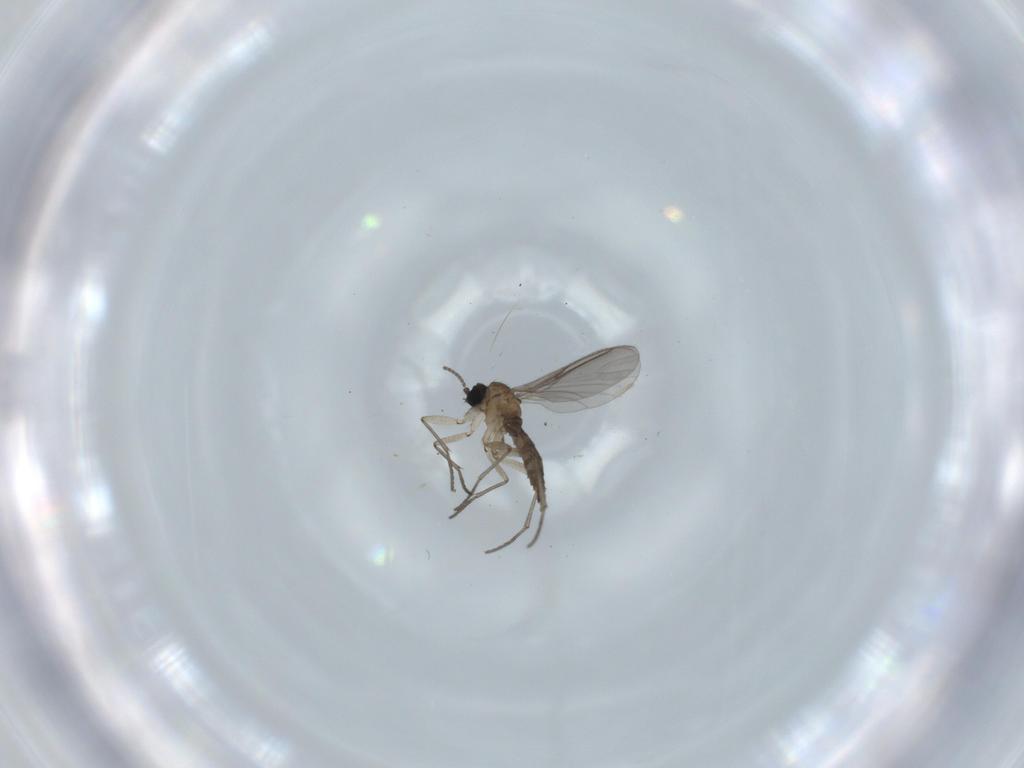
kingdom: Animalia
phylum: Arthropoda
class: Insecta
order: Diptera
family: Sciaridae
